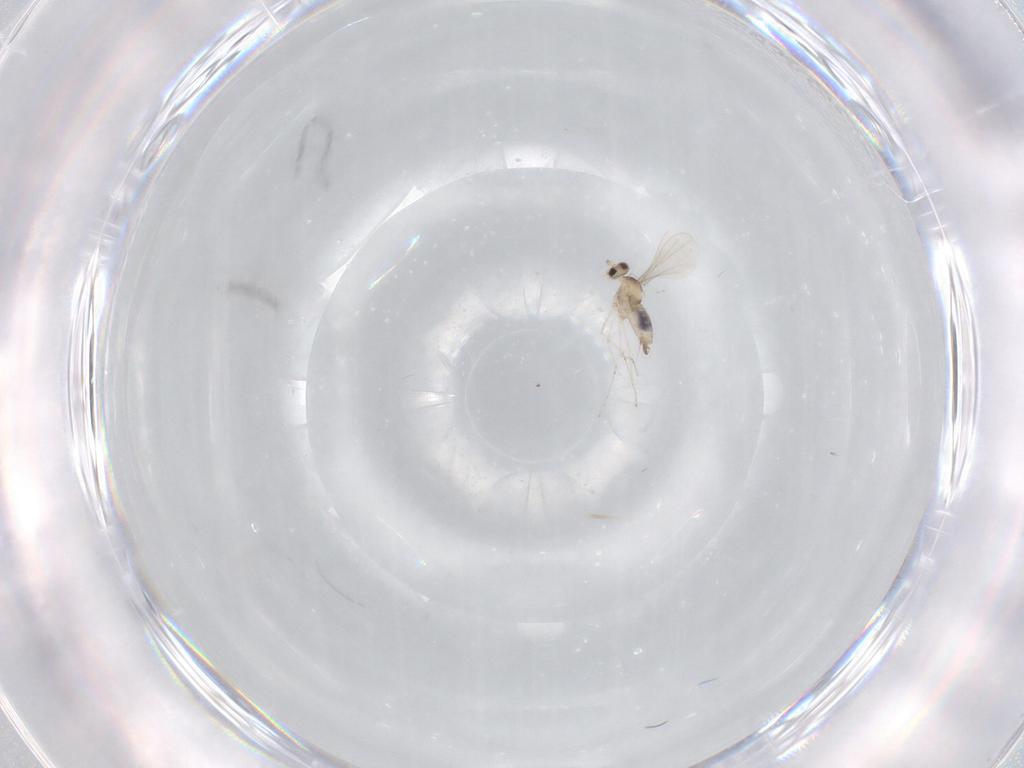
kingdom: Animalia
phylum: Arthropoda
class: Insecta
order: Diptera
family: Cecidomyiidae
